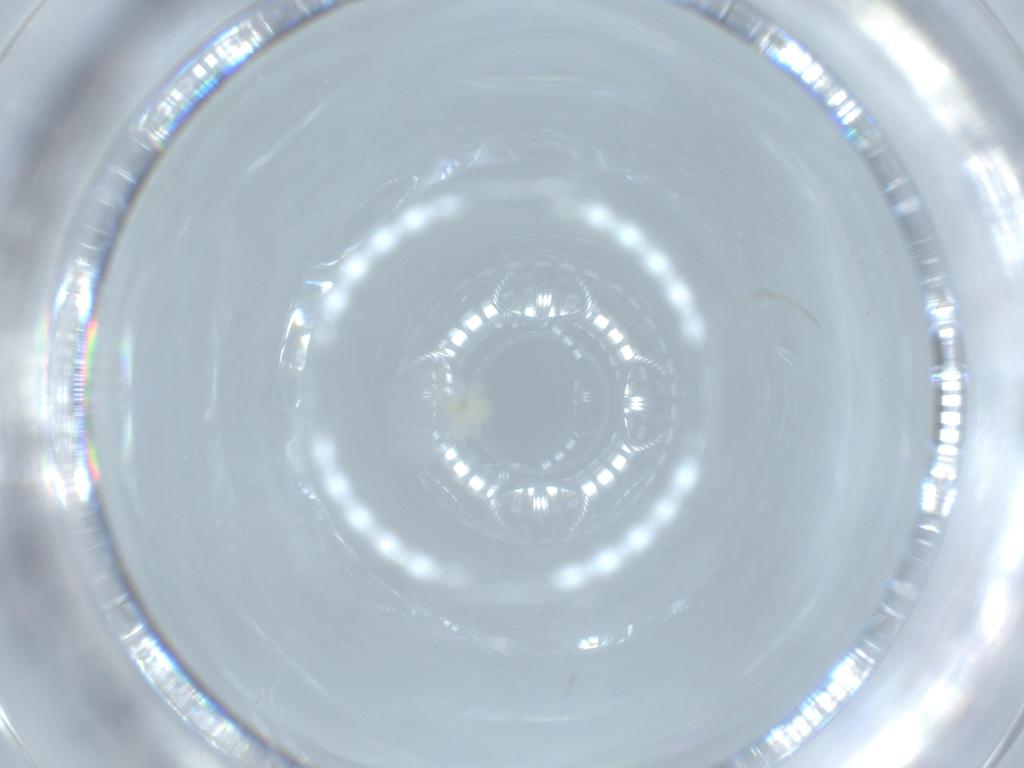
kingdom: Animalia
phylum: Arthropoda
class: Arachnida
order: Trombidiformes
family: Anystidae
